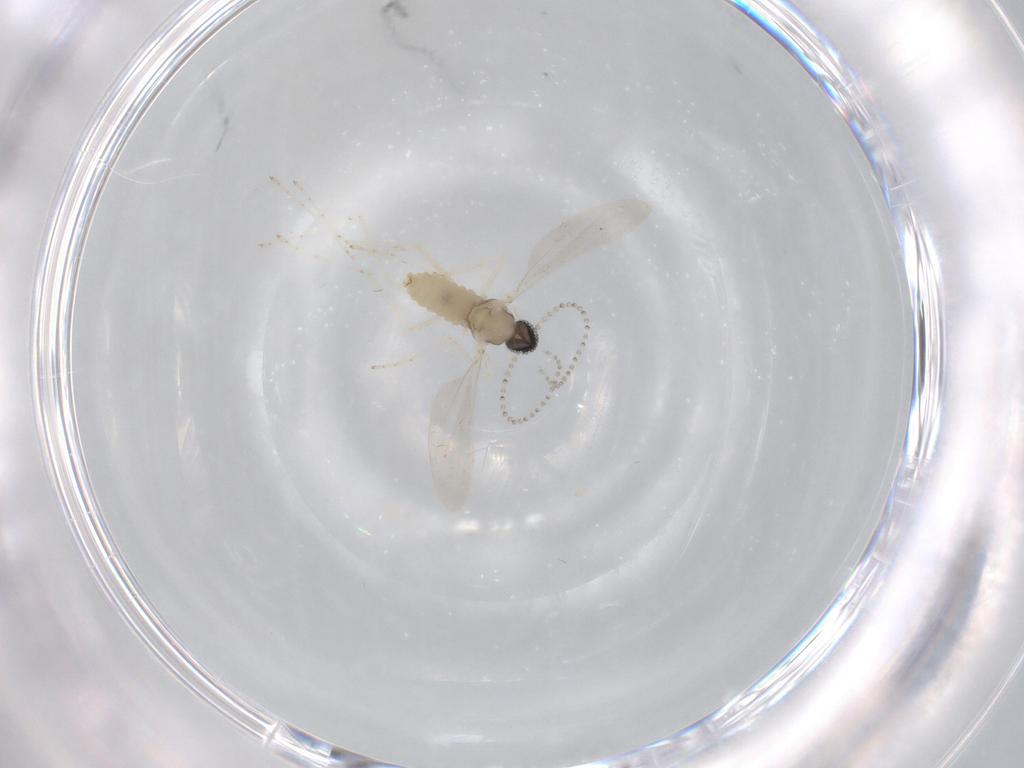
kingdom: Animalia
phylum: Arthropoda
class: Insecta
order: Diptera
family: Cecidomyiidae
